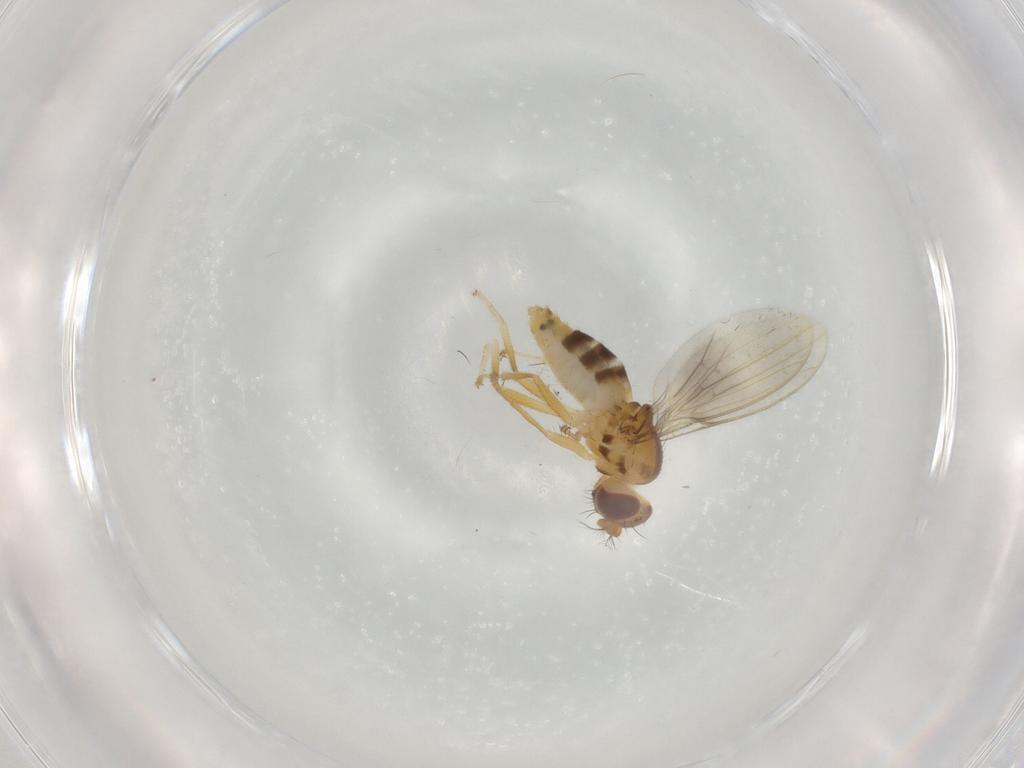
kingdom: Animalia
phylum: Arthropoda
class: Insecta
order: Diptera
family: Periscelididae
